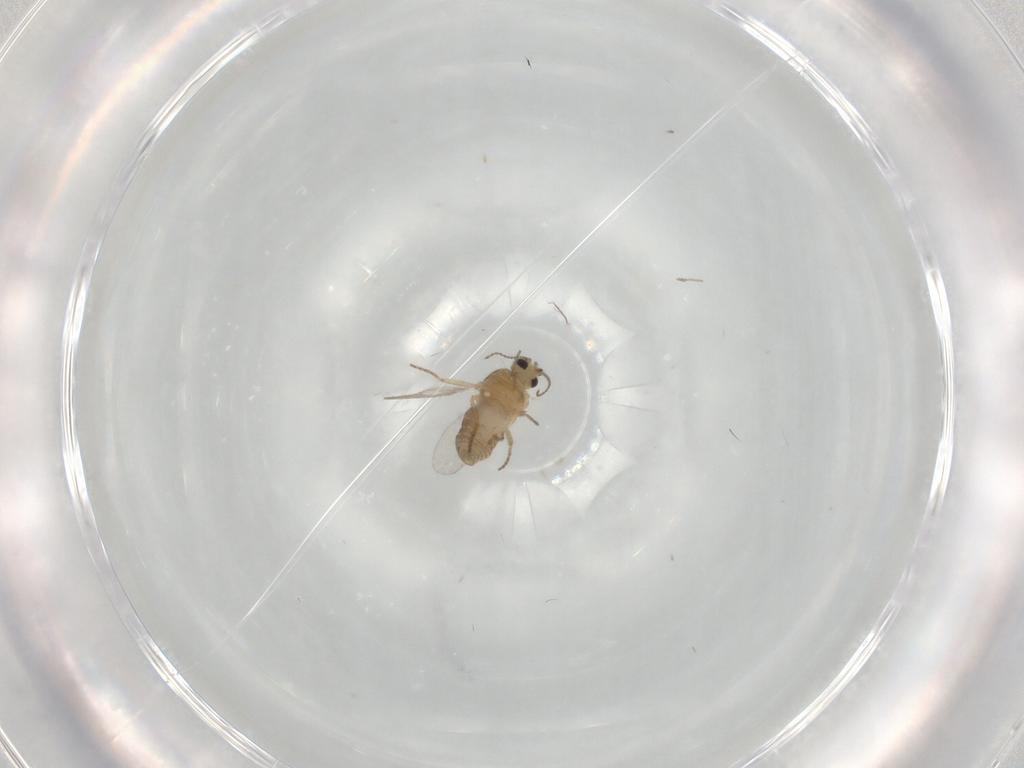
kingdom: Animalia
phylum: Arthropoda
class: Insecta
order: Diptera
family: Ceratopogonidae
